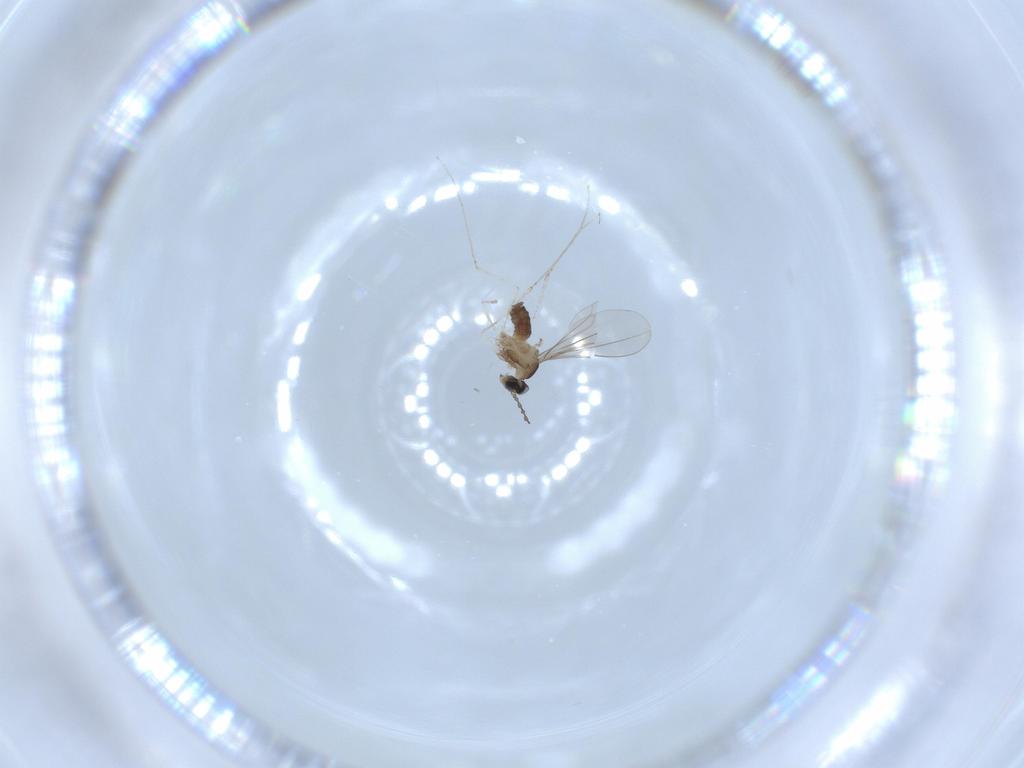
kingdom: Animalia
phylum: Arthropoda
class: Insecta
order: Diptera
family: Cecidomyiidae
